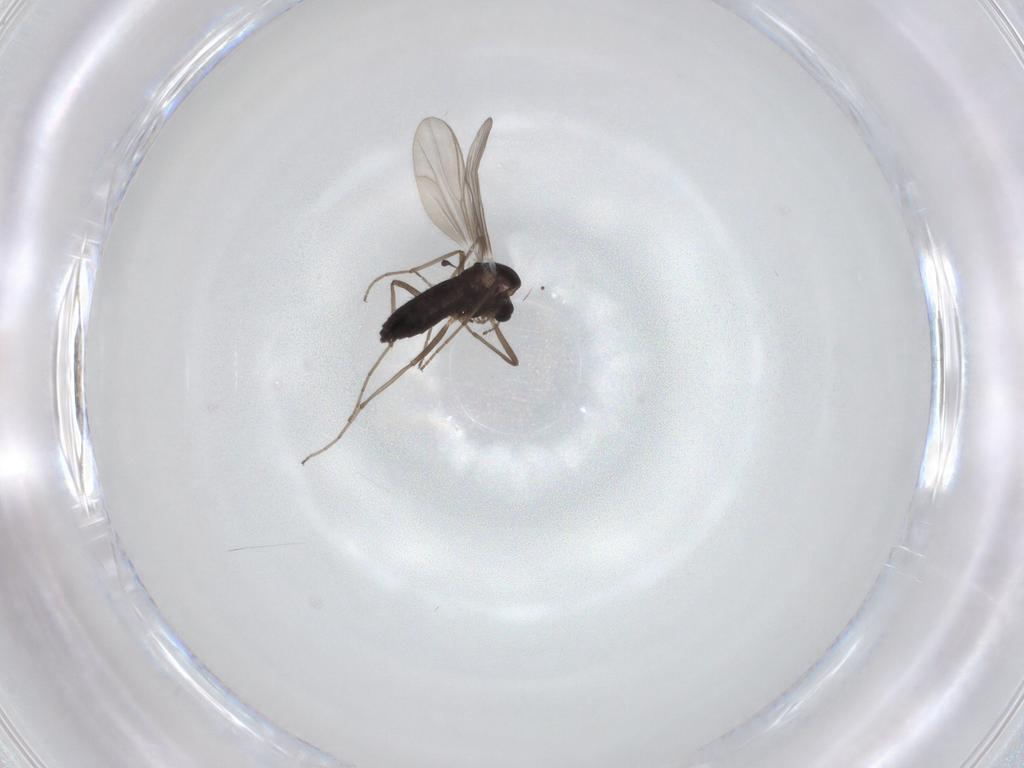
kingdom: Animalia
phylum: Arthropoda
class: Insecta
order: Diptera
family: Chironomidae
